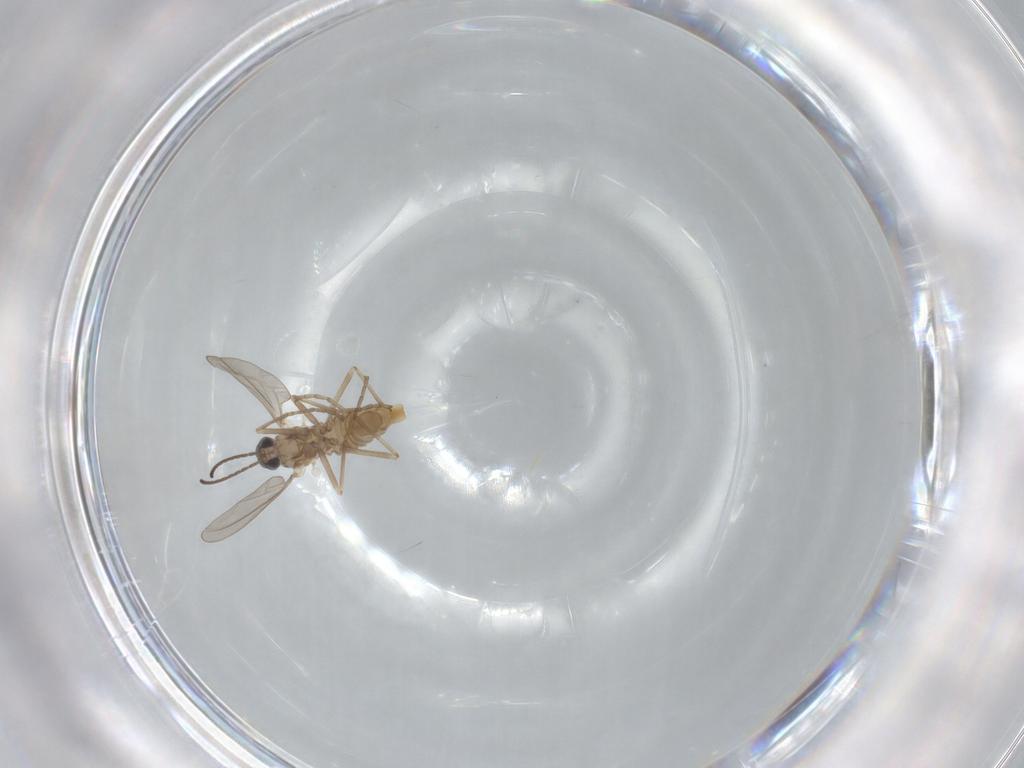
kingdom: Animalia
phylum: Arthropoda
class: Insecta
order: Diptera
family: Cecidomyiidae
